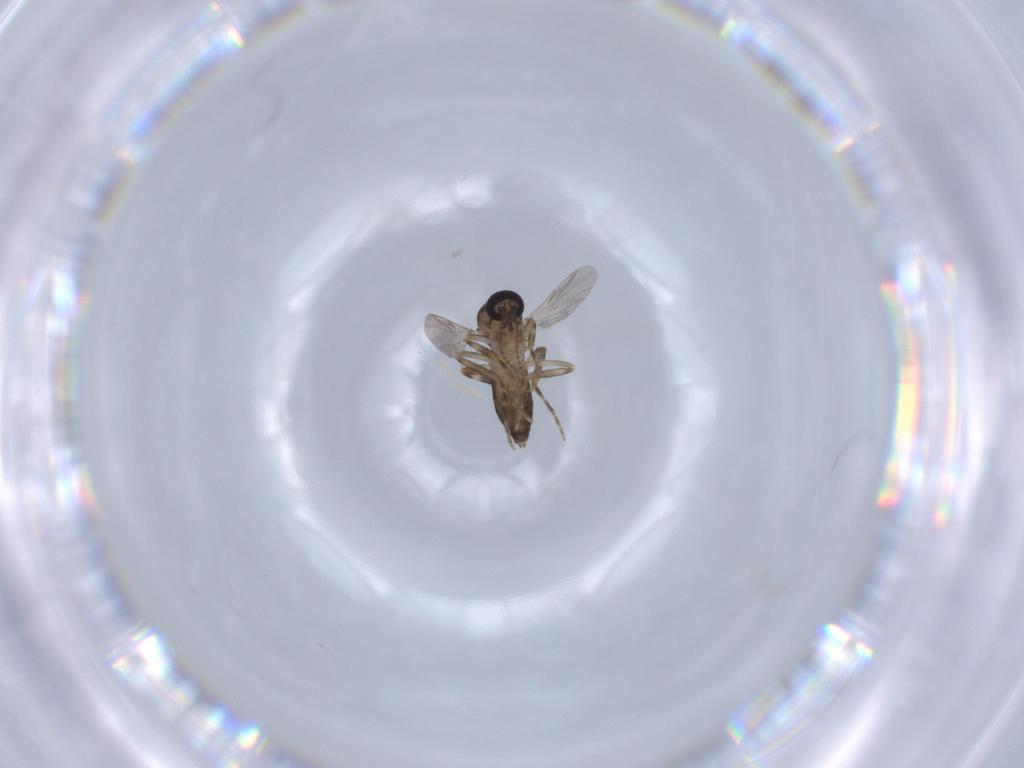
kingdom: Animalia
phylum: Arthropoda
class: Insecta
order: Diptera
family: Ceratopogonidae
